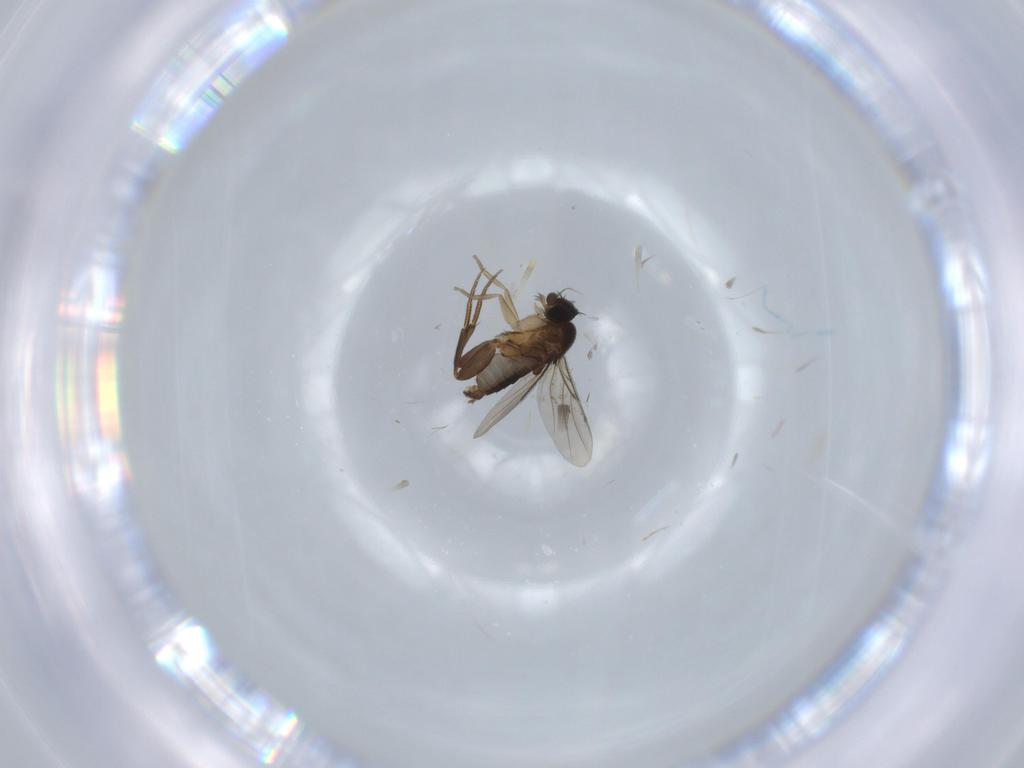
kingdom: Animalia
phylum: Arthropoda
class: Insecta
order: Diptera
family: Phoridae
